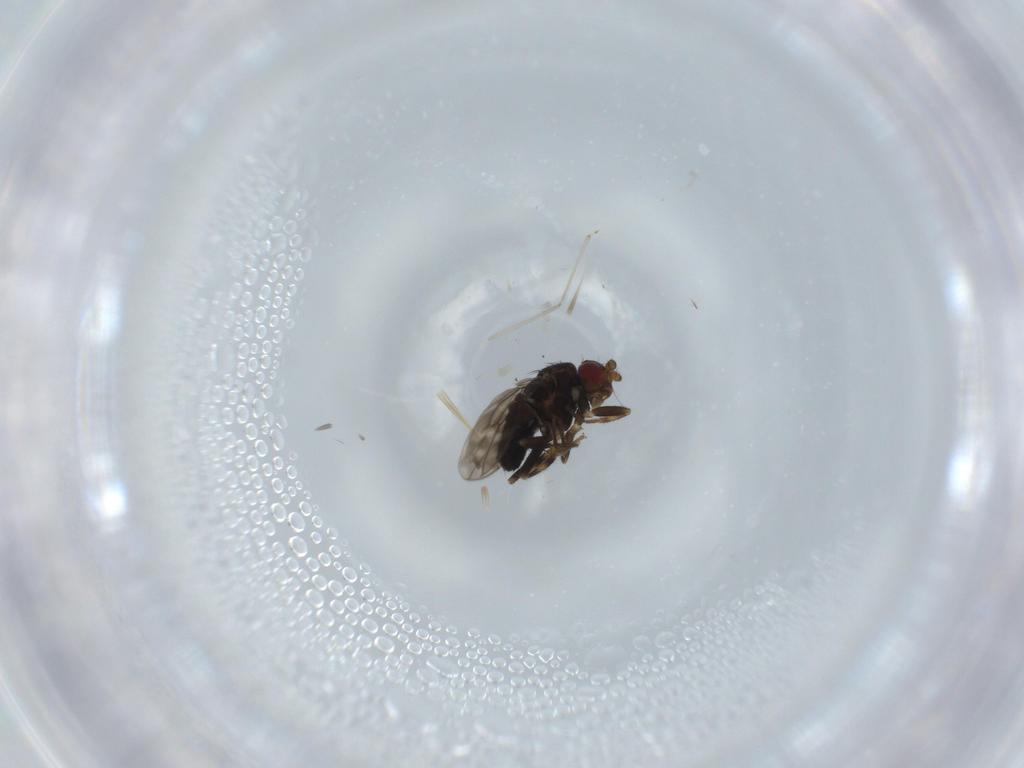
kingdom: Animalia
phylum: Arthropoda
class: Insecta
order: Diptera
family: Sphaeroceridae
